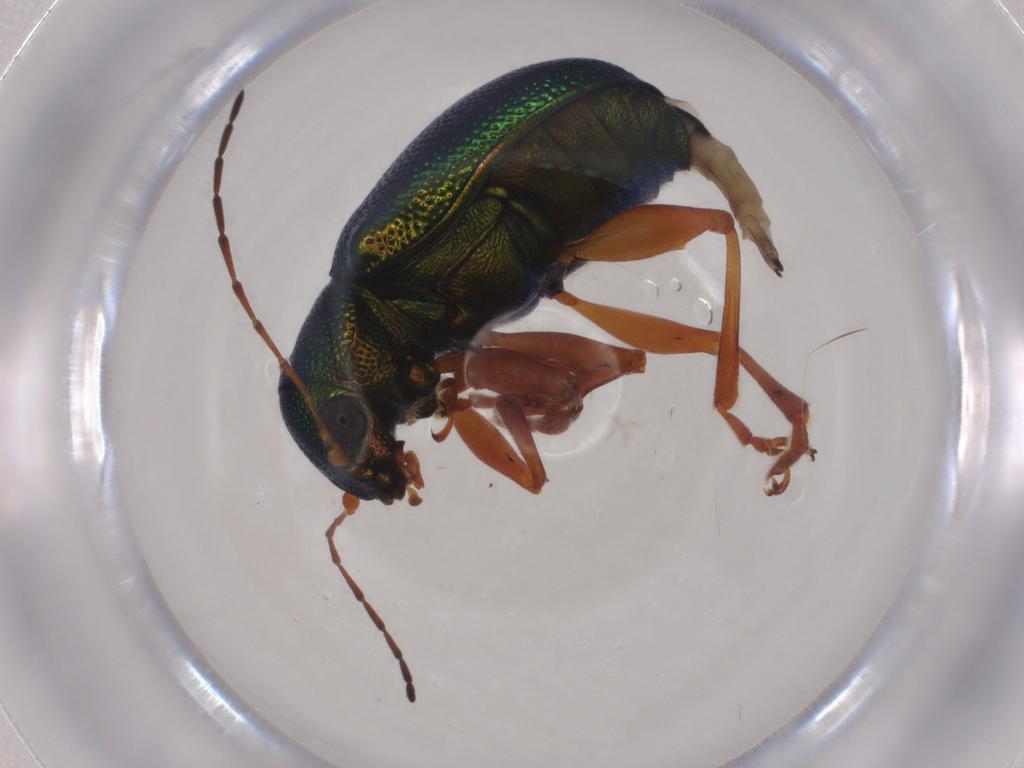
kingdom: Animalia
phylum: Arthropoda
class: Insecta
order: Coleoptera
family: Chrysomelidae
